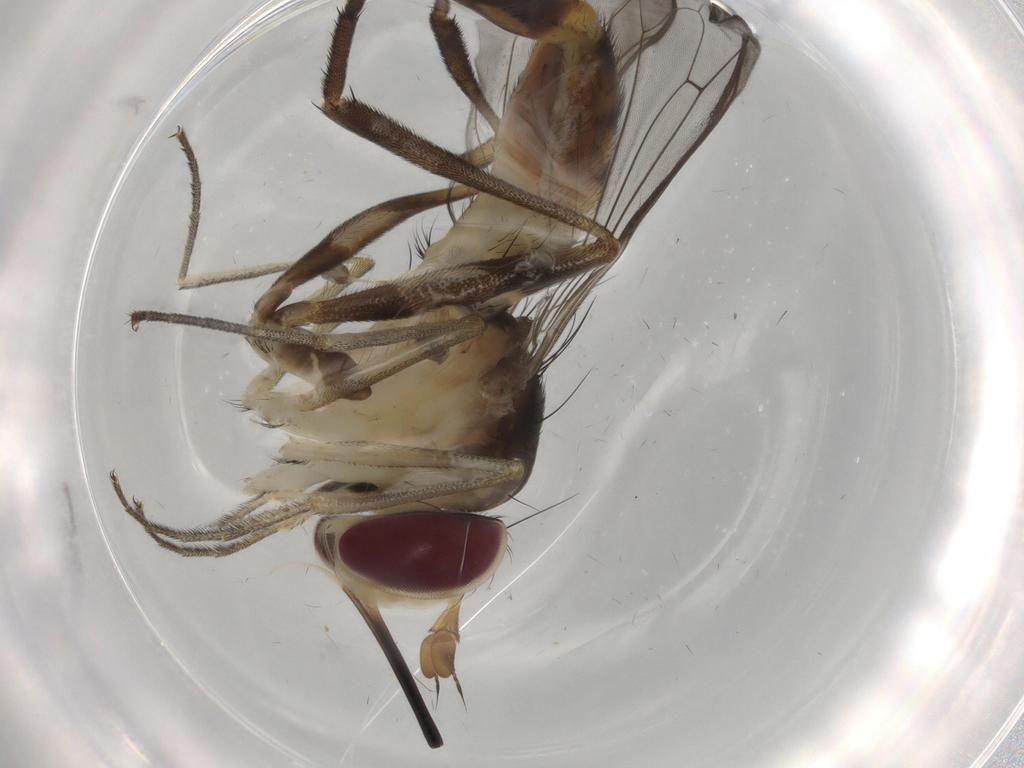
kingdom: Animalia
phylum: Arthropoda
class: Insecta
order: Diptera
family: Conopidae
